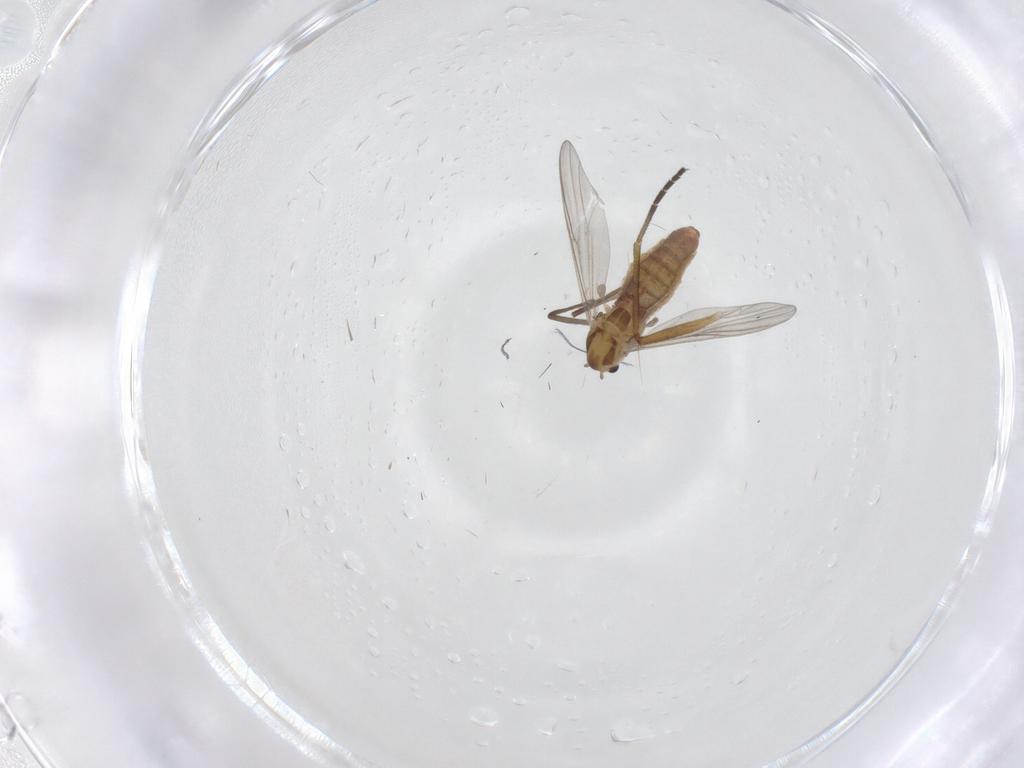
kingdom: Animalia
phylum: Arthropoda
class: Insecta
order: Diptera
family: Chironomidae
